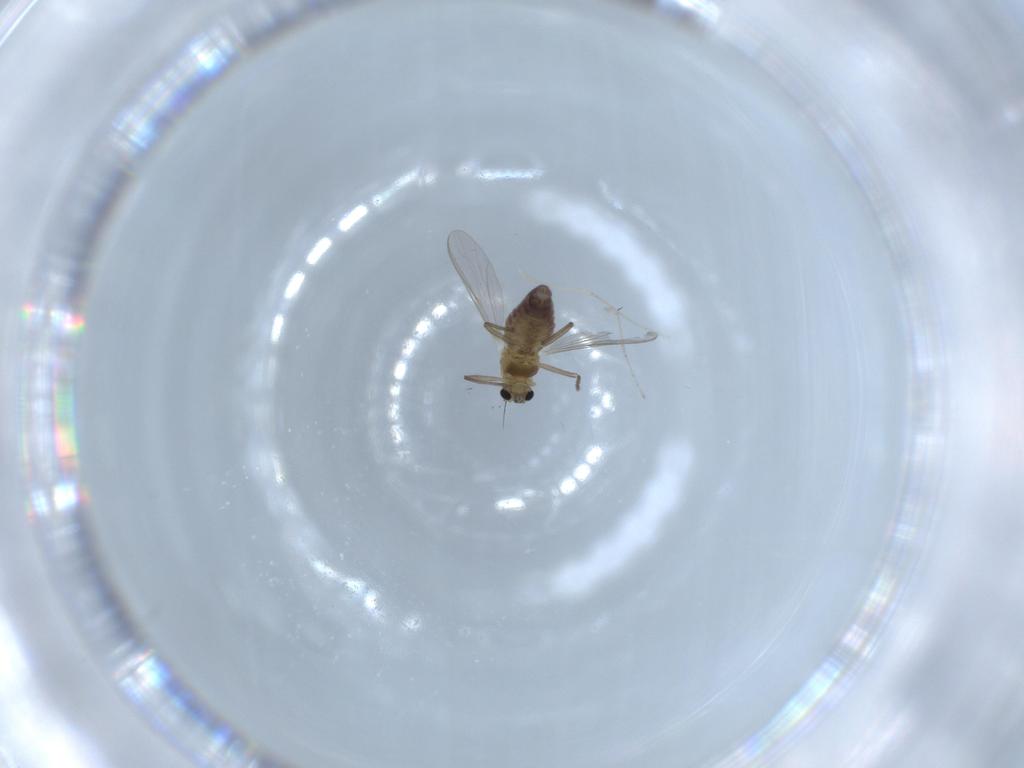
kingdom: Animalia
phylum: Arthropoda
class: Insecta
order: Diptera
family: Chironomidae
